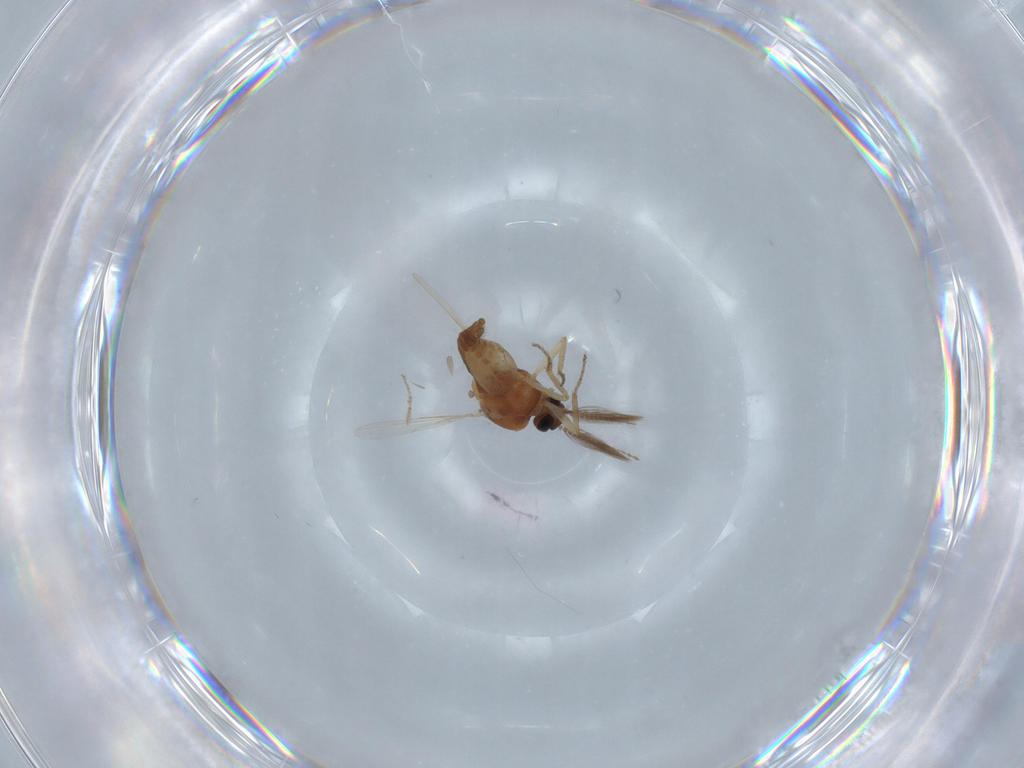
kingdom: Animalia
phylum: Arthropoda
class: Insecta
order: Diptera
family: Ceratopogonidae
